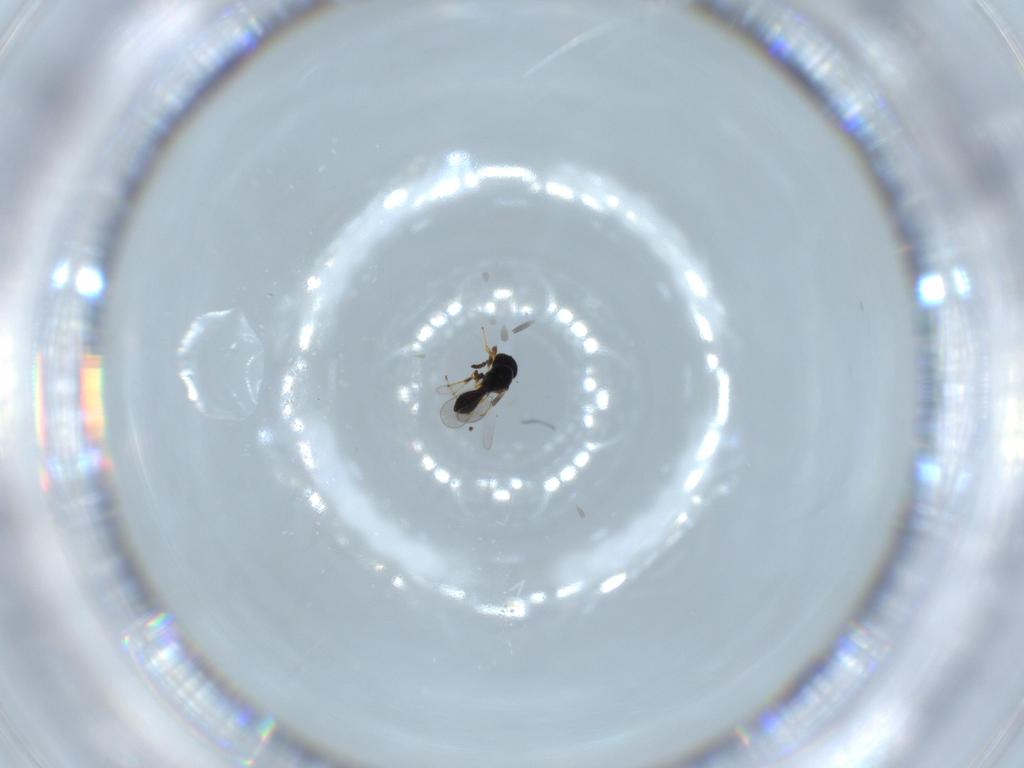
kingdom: Animalia
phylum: Arthropoda
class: Insecta
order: Hymenoptera
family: Platygastridae
